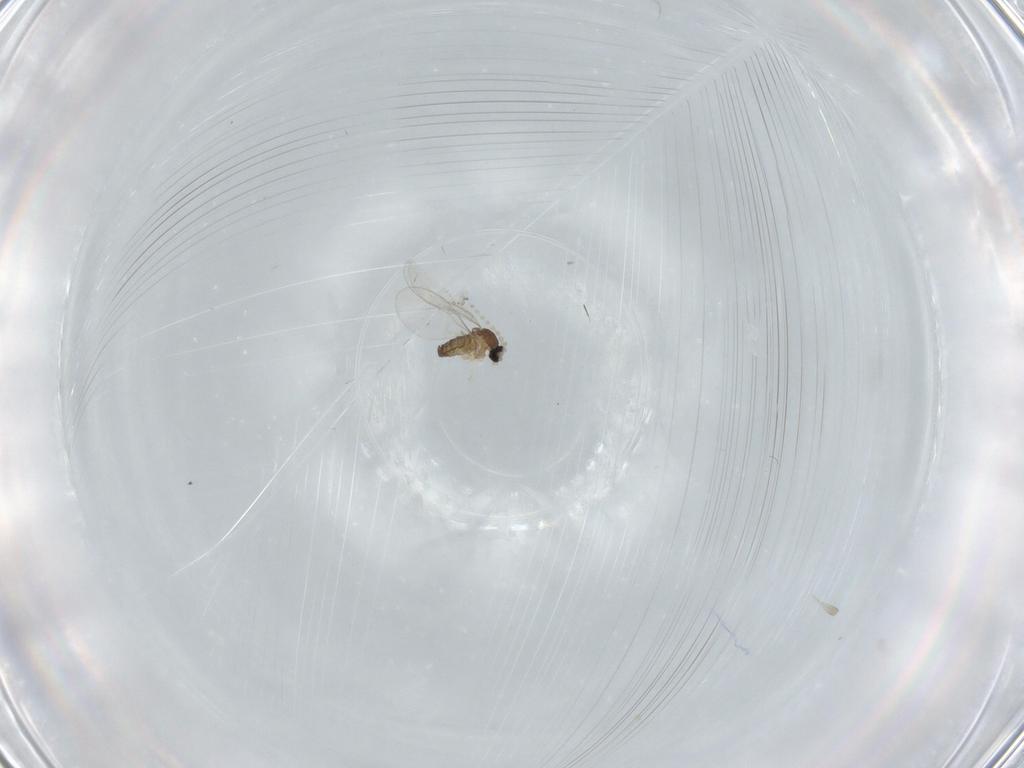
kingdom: Animalia
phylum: Arthropoda
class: Insecta
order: Diptera
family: Cecidomyiidae
